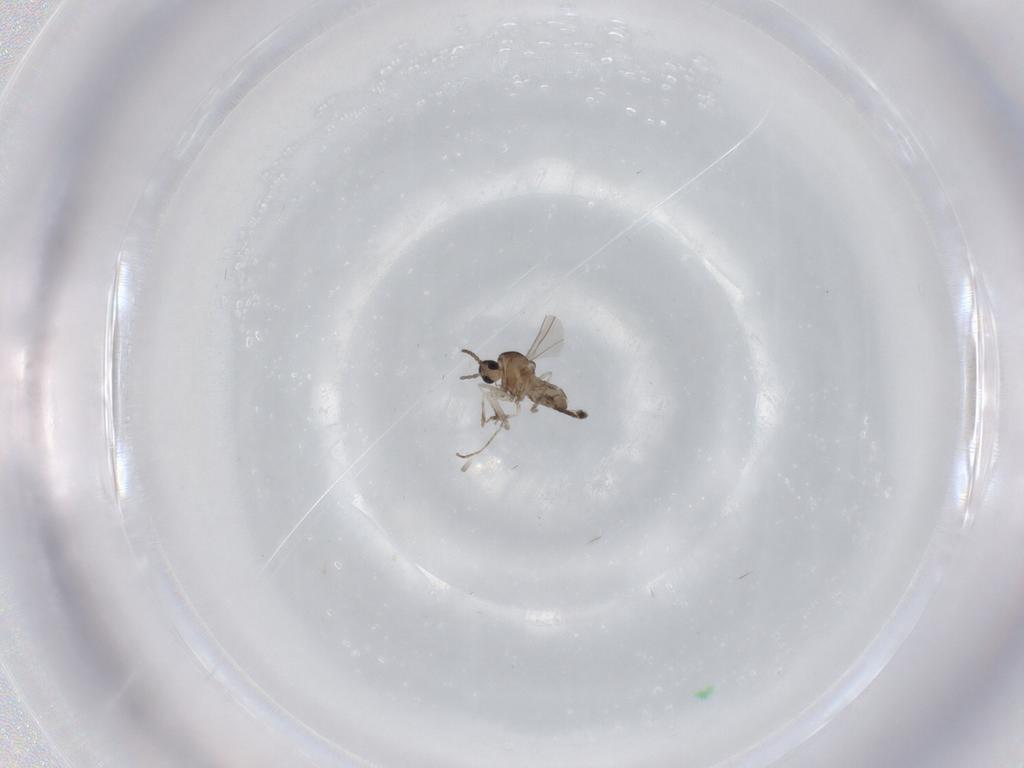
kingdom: Animalia
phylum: Arthropoda
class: Insecta
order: Diptera
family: Cecidomyiidae
